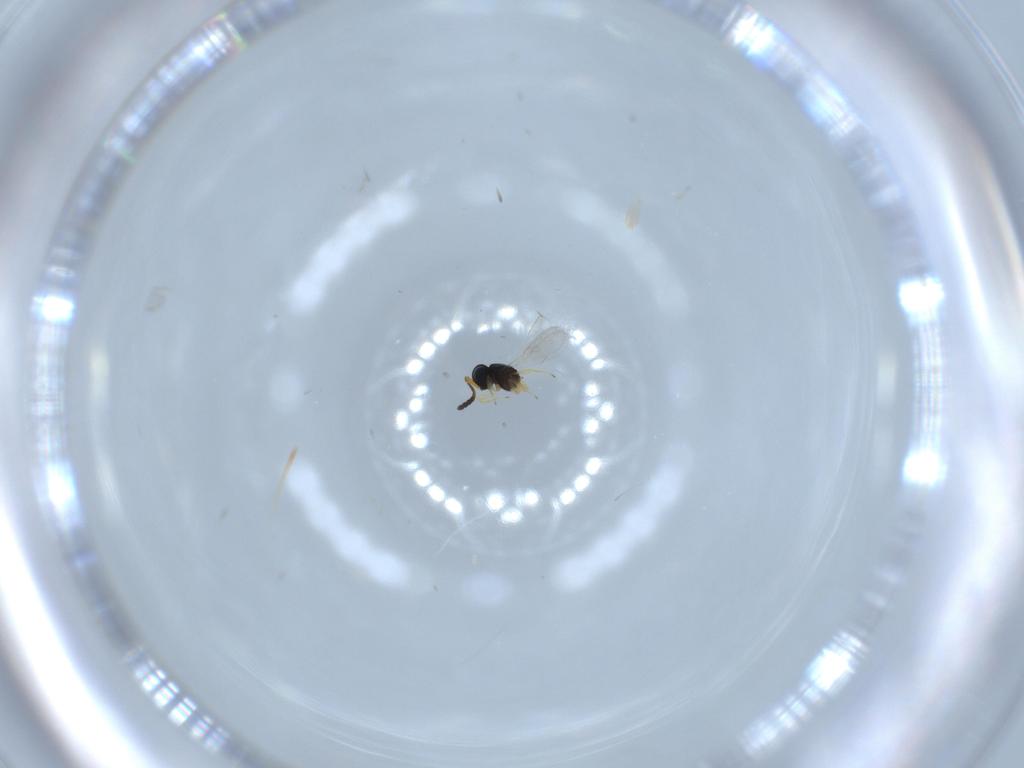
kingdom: Animalia
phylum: Arthropoda
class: Insecta
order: Hymenoptera
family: Scelionidae
